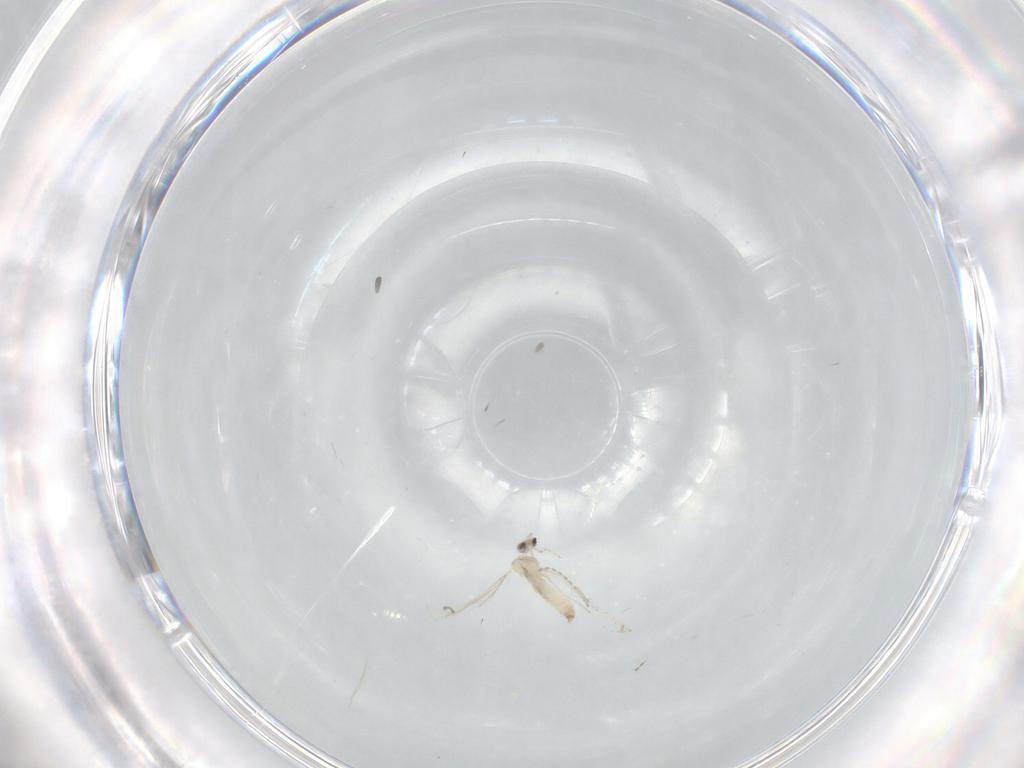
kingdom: Animalia
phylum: Arthropoda
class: Insecta
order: Diptera
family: Cecidomyiidae
